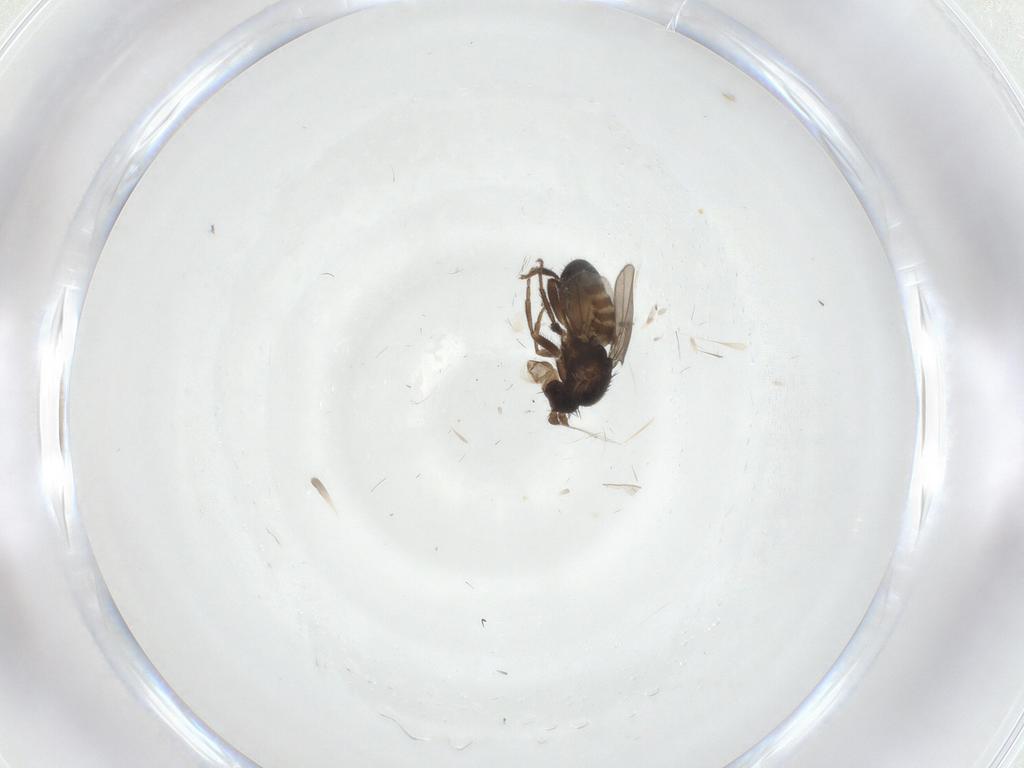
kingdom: Animalia
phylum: Arthropoda
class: Insecta
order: Diptera
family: Sphaeroceridae
